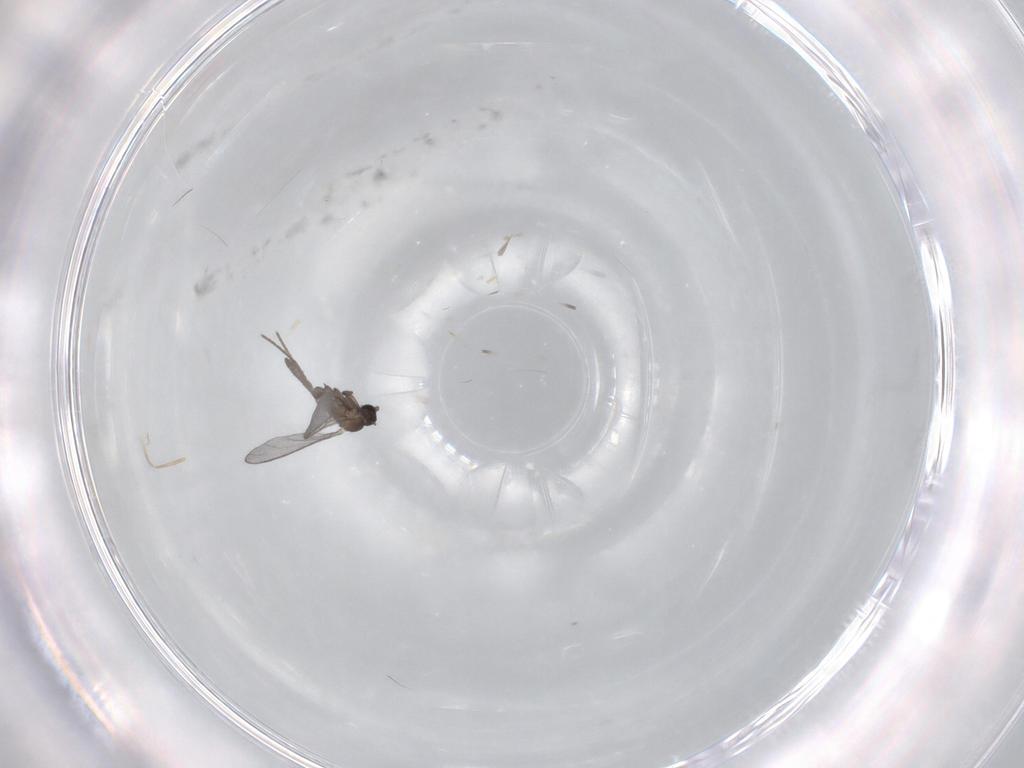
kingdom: Animalia
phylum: Arthropoda
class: Insecta
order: Diptera
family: Sciaridae
